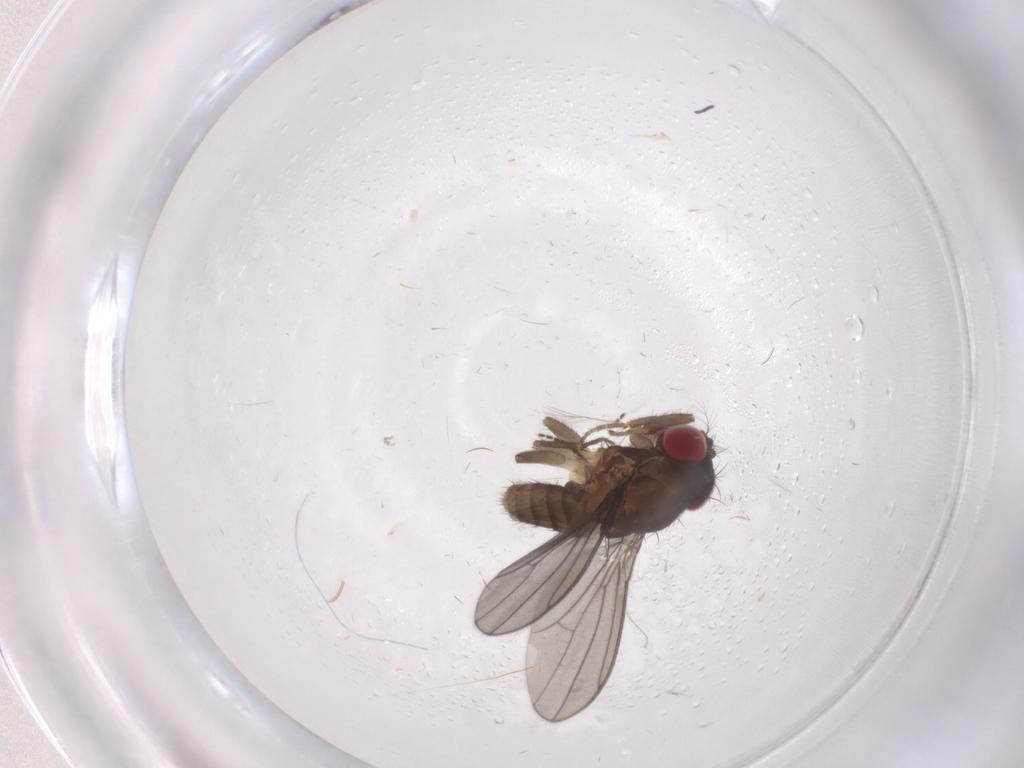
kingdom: Animalia
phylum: Arthropoda
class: Insecta
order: Diptera
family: Drosophilidae
